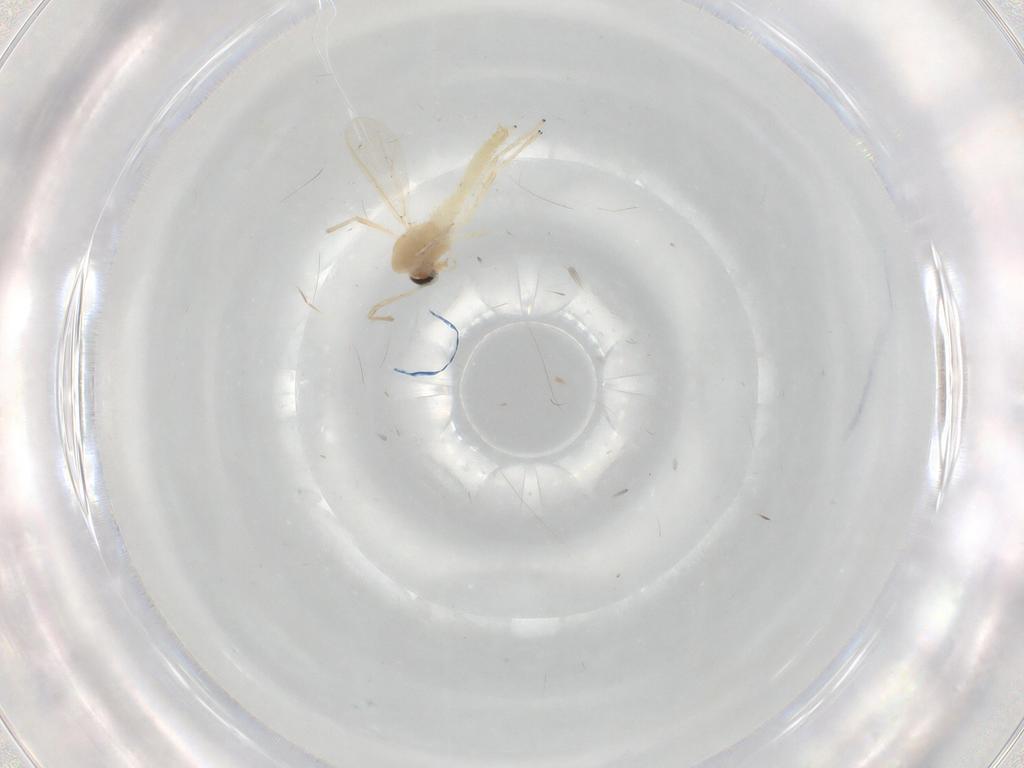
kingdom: Animalia
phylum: Arthropoda
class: Insecta
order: Diptera
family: Chironomidae
